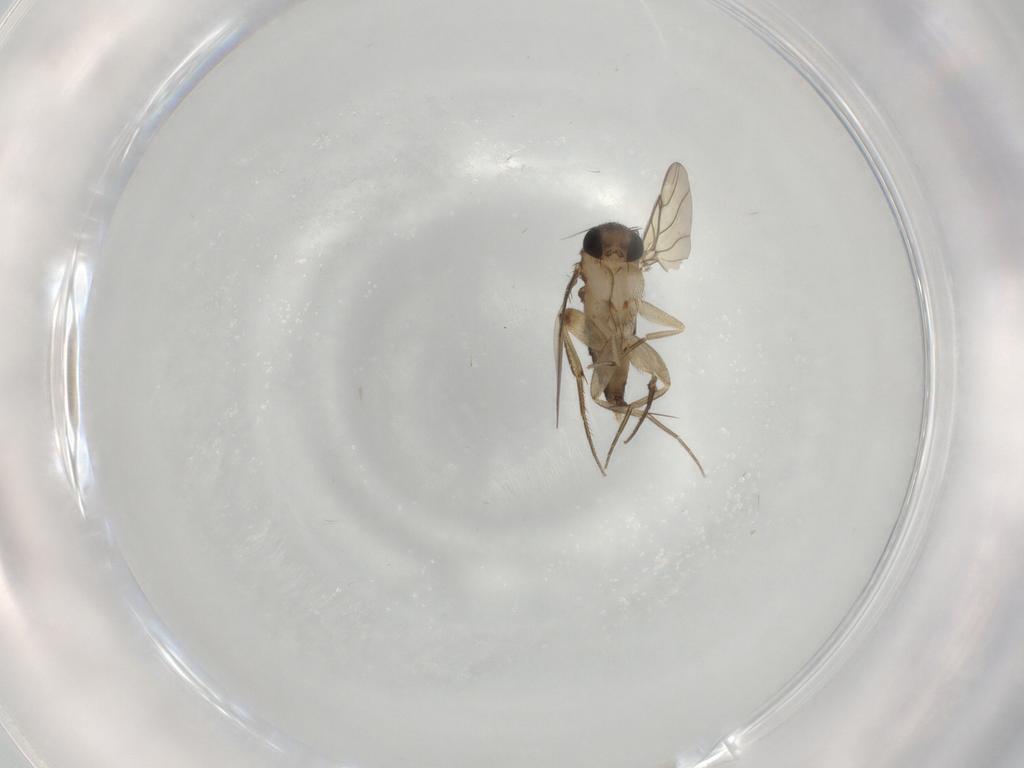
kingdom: Animalia
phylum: Arthropoda
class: Insecta
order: Diptera
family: Phoridae
